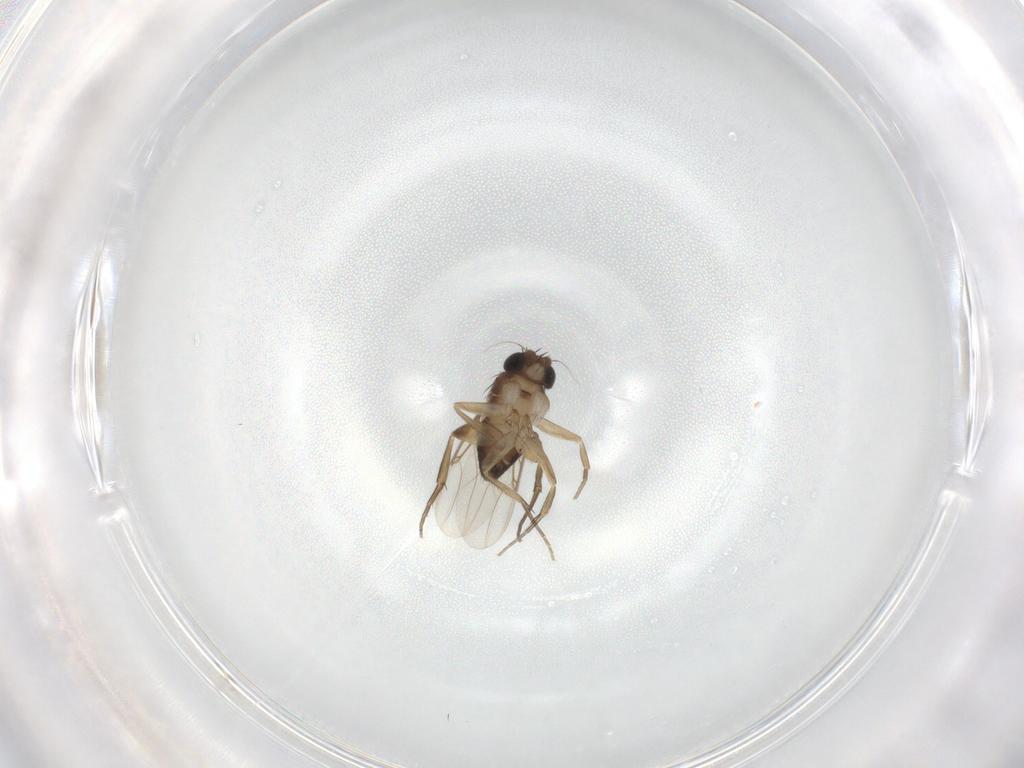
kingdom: Animalia
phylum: Arthropoda
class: Insecta
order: Diptera
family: Phoridae
